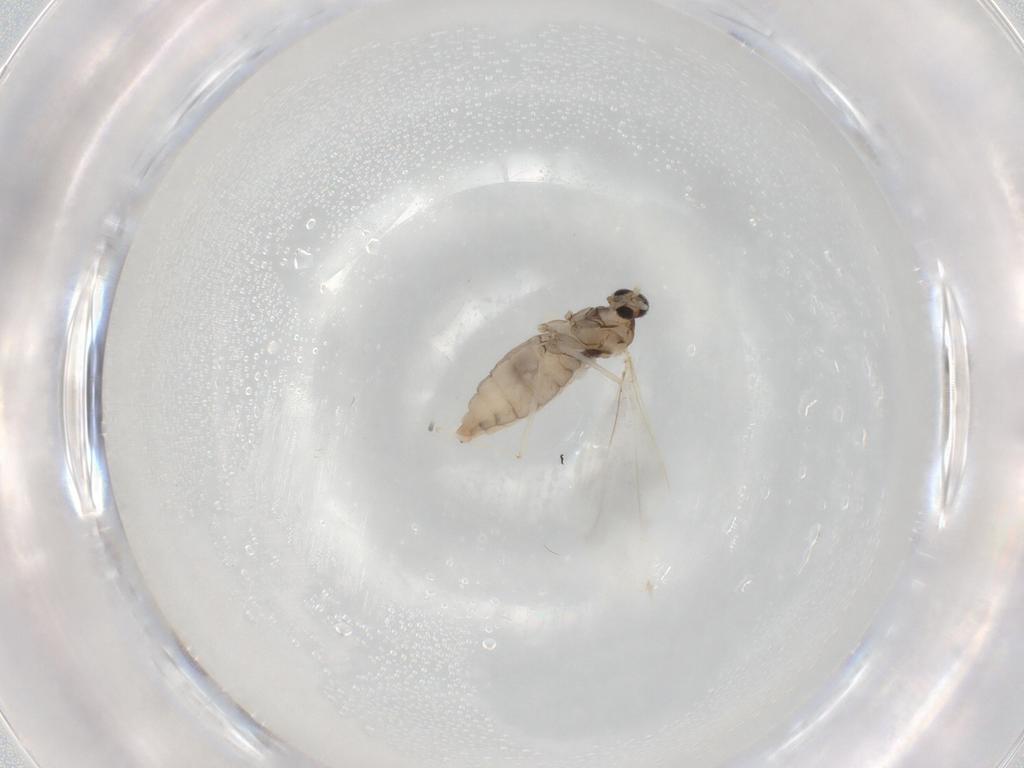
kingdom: Animalia
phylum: Arthropoda
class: Insecta
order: Diptera
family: Cecidomyiidae
